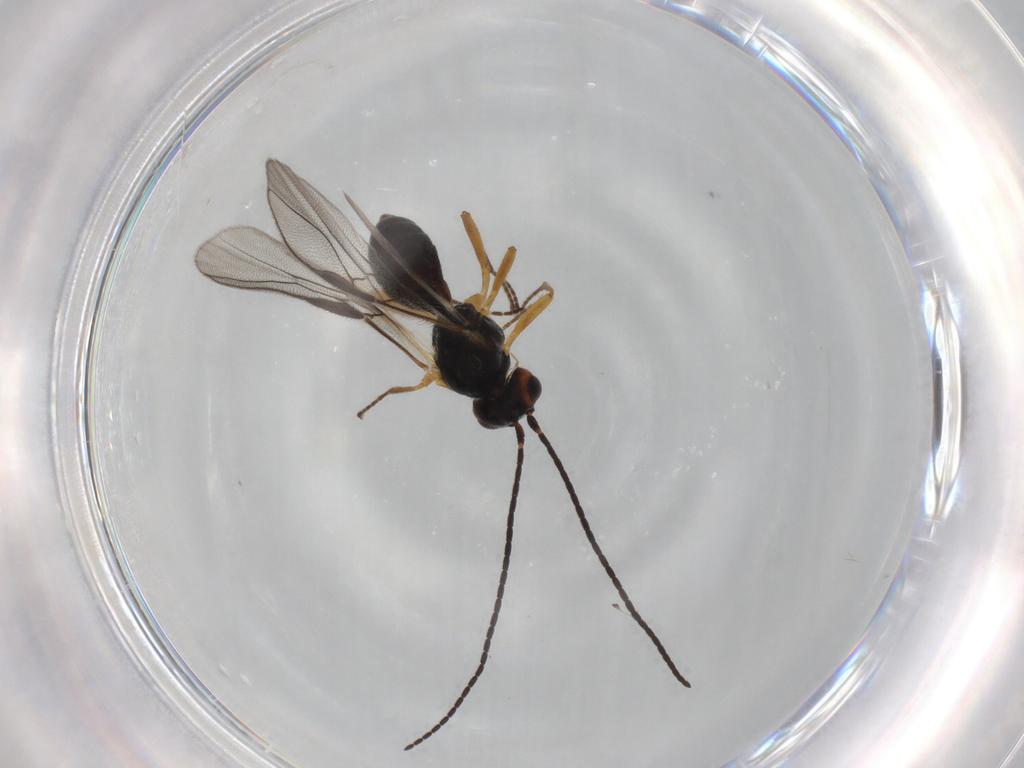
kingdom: Animalia
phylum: Arthropoda
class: Insecta
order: Hymenoptera
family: Braconidae
